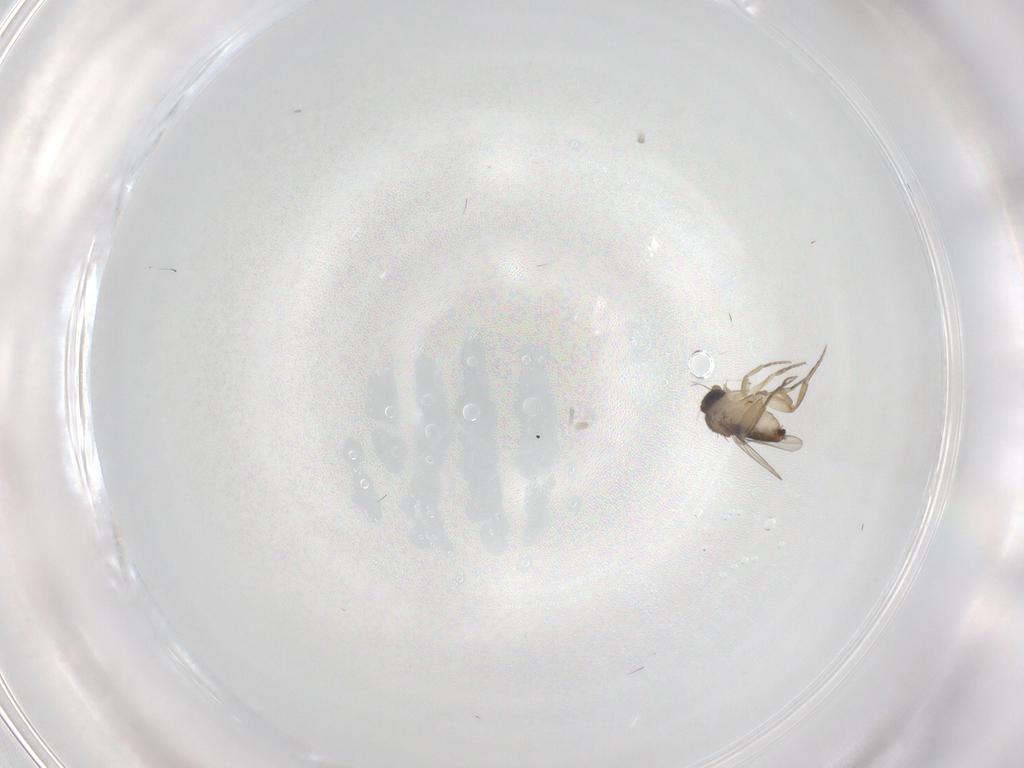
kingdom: Animalia
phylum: Arthropoda
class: Insecta
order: Diptera
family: Phoridae
